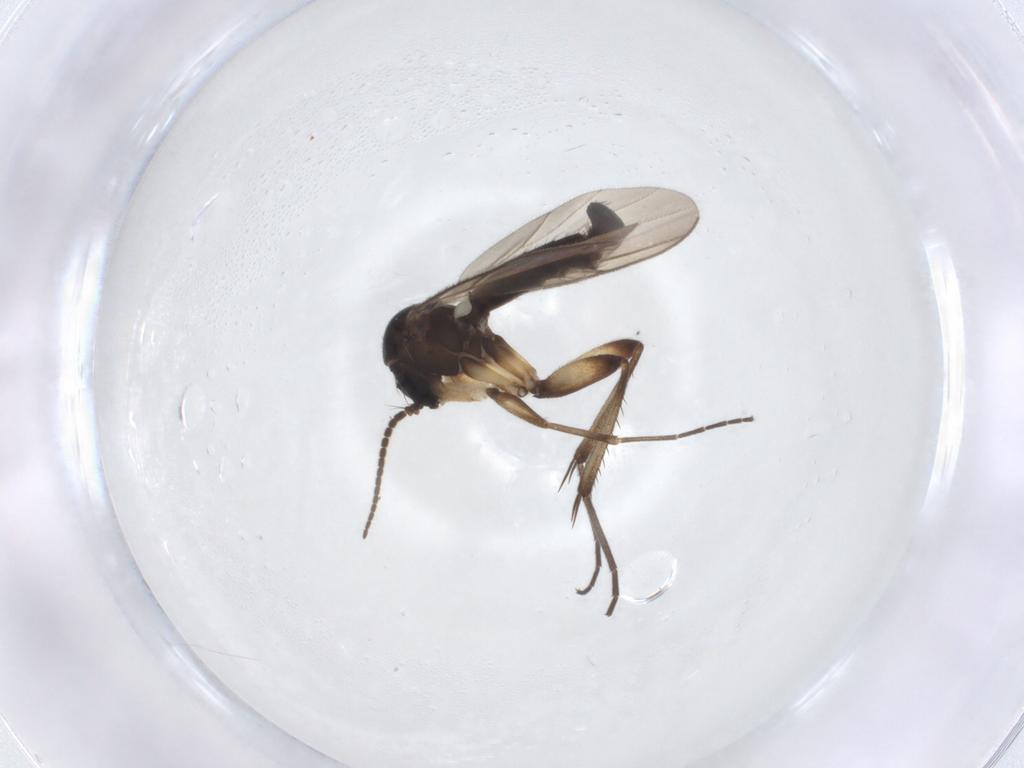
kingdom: Animalia
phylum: Arthropoda
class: Insecta
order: Diptera
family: Mycetophilidae
